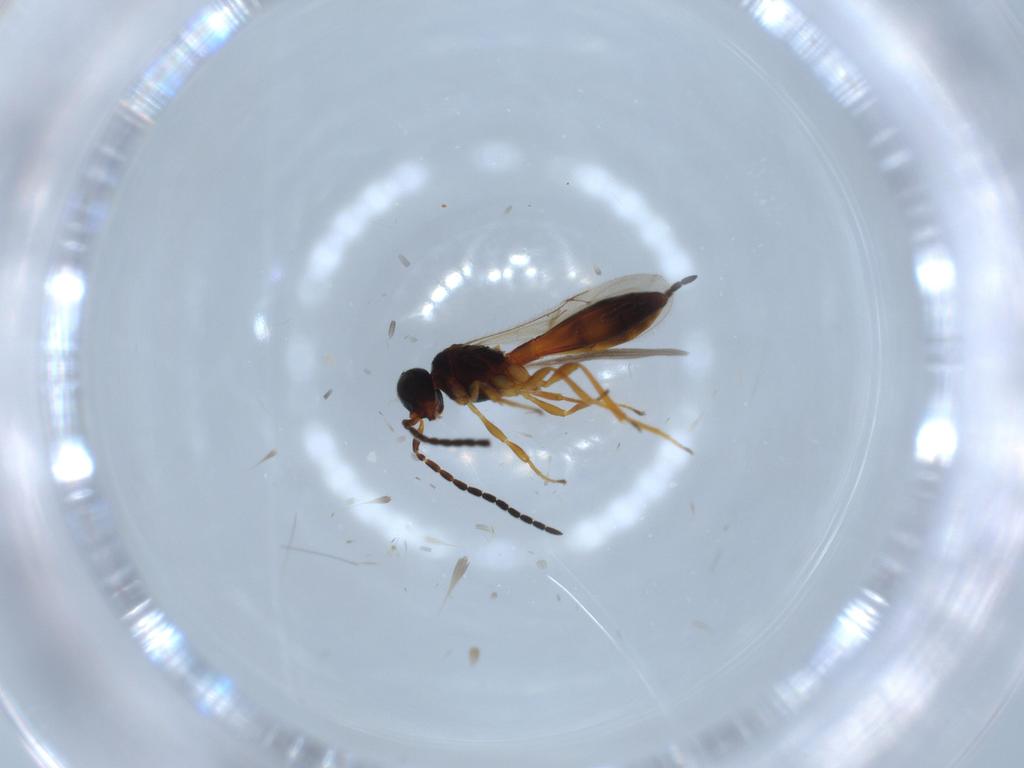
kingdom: Animalia
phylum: Arthropoda
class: Insecta
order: Hymenoptera
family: Scelionidae
